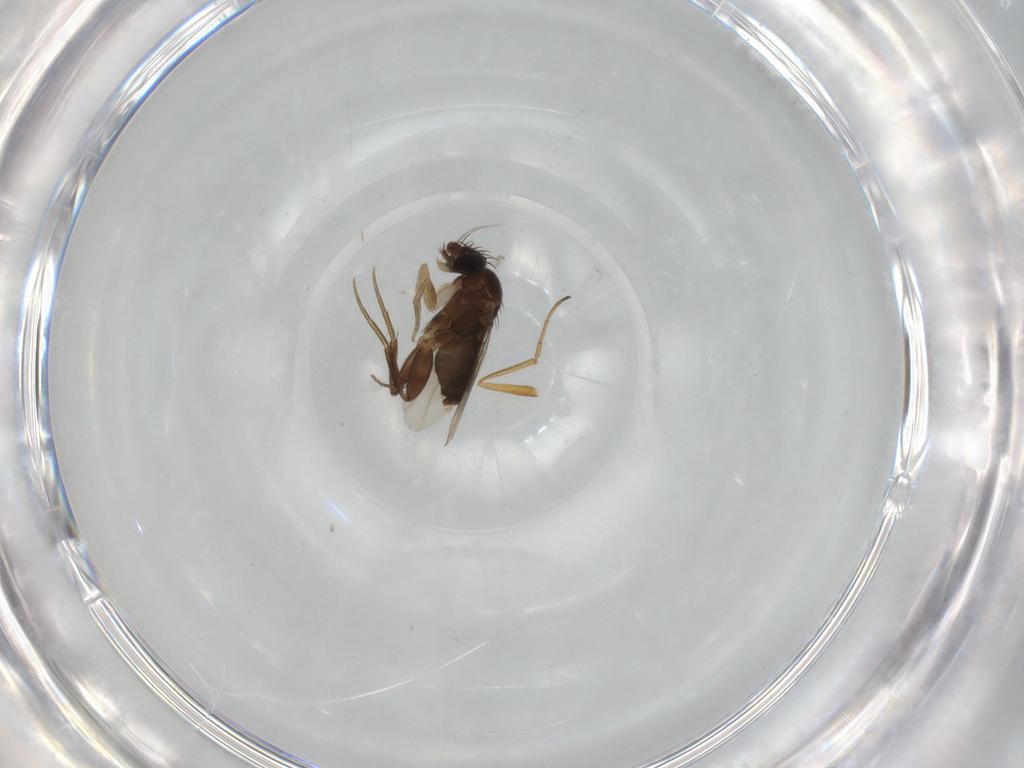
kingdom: Animalia
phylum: Arthropoda
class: Insecta
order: Diptera
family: Phoridae
